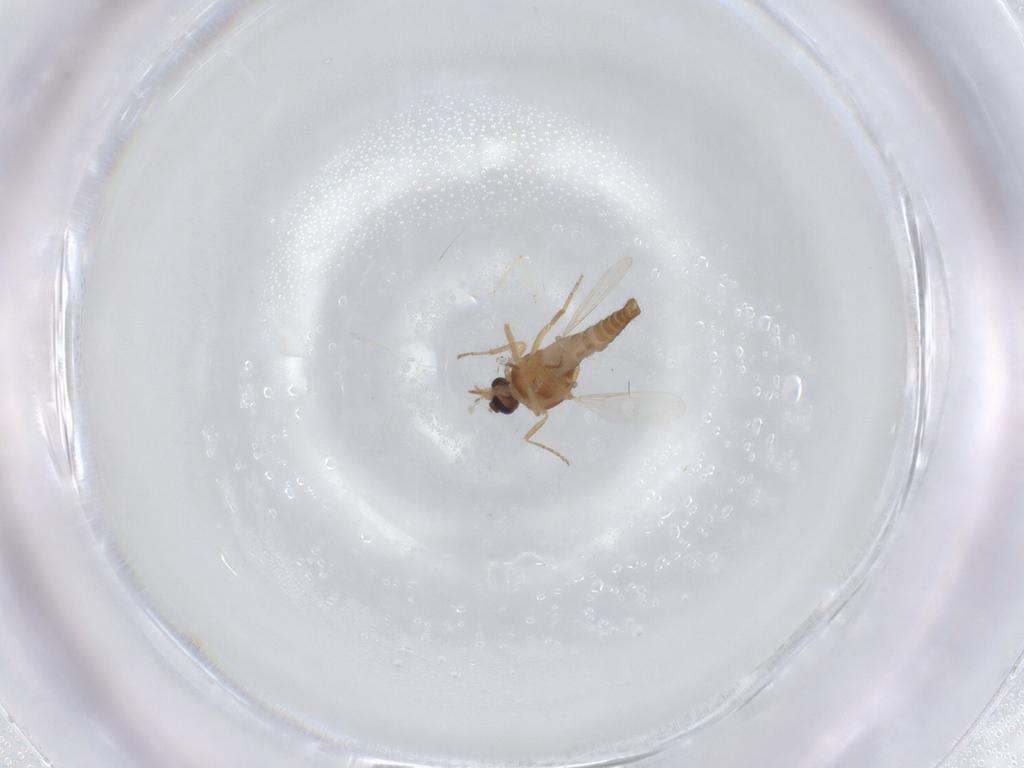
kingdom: Animalia
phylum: Arthropoda
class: Insecta
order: Diptera
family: Ceratopogonidae
